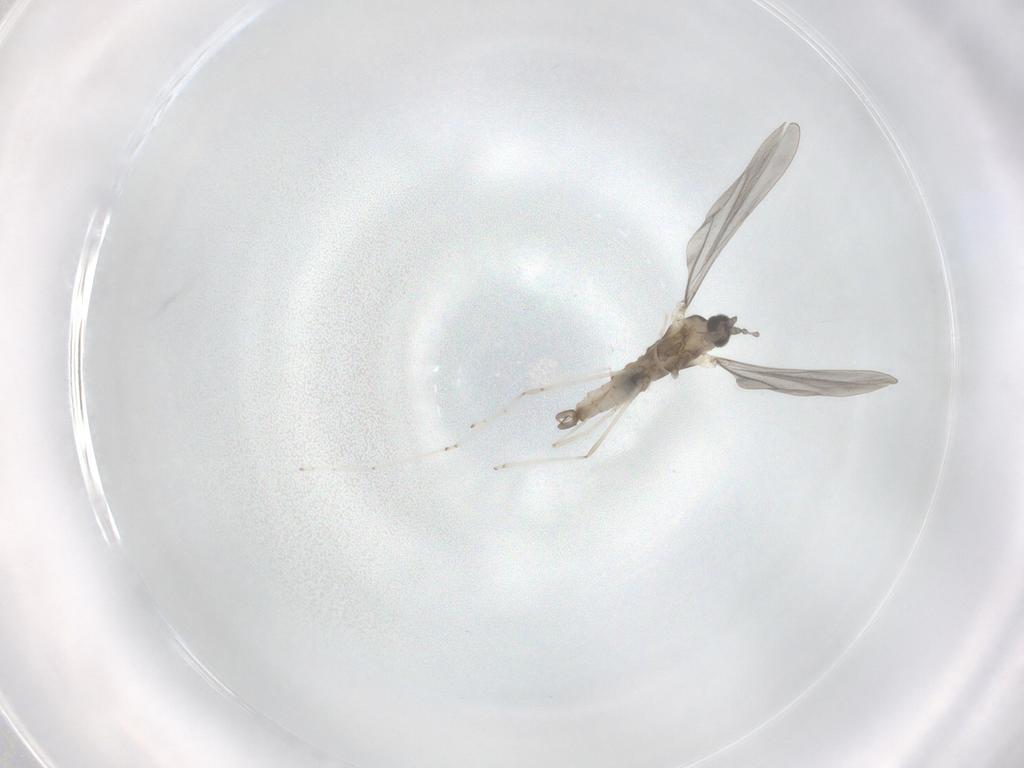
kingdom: Animalia
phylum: Arthropoda
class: Insecta
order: Diptera
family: Cecidomyiidae
